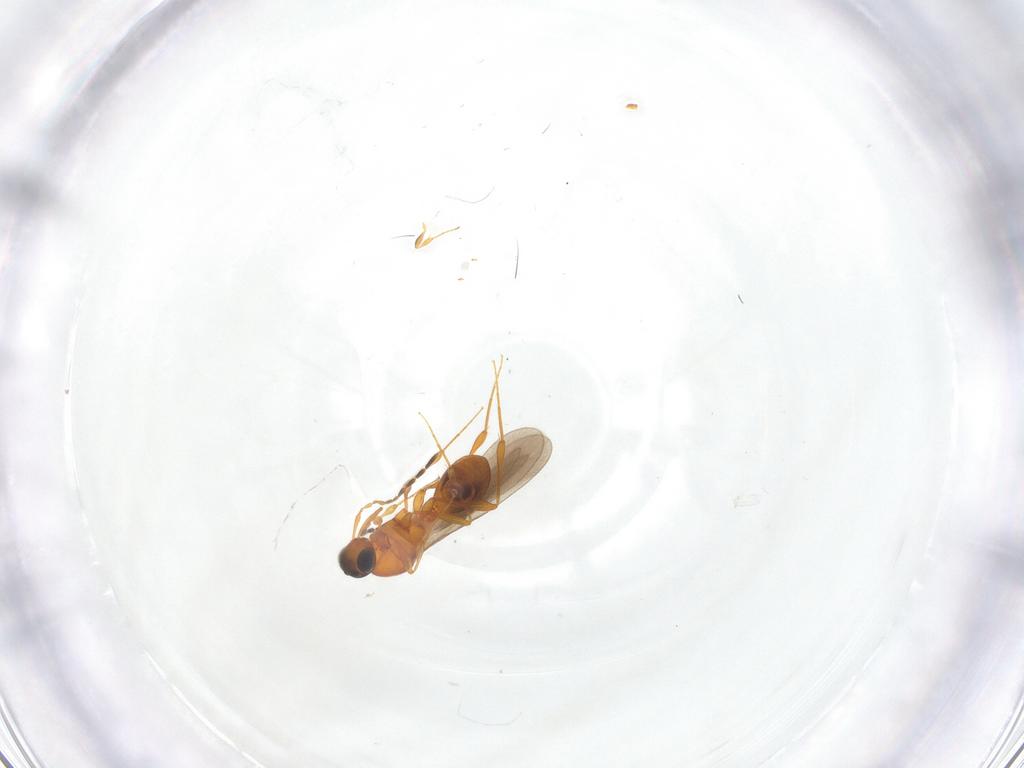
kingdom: Animalia
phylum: Arthropoda
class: Insecta
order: Hymenoptera
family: Platygastridae
